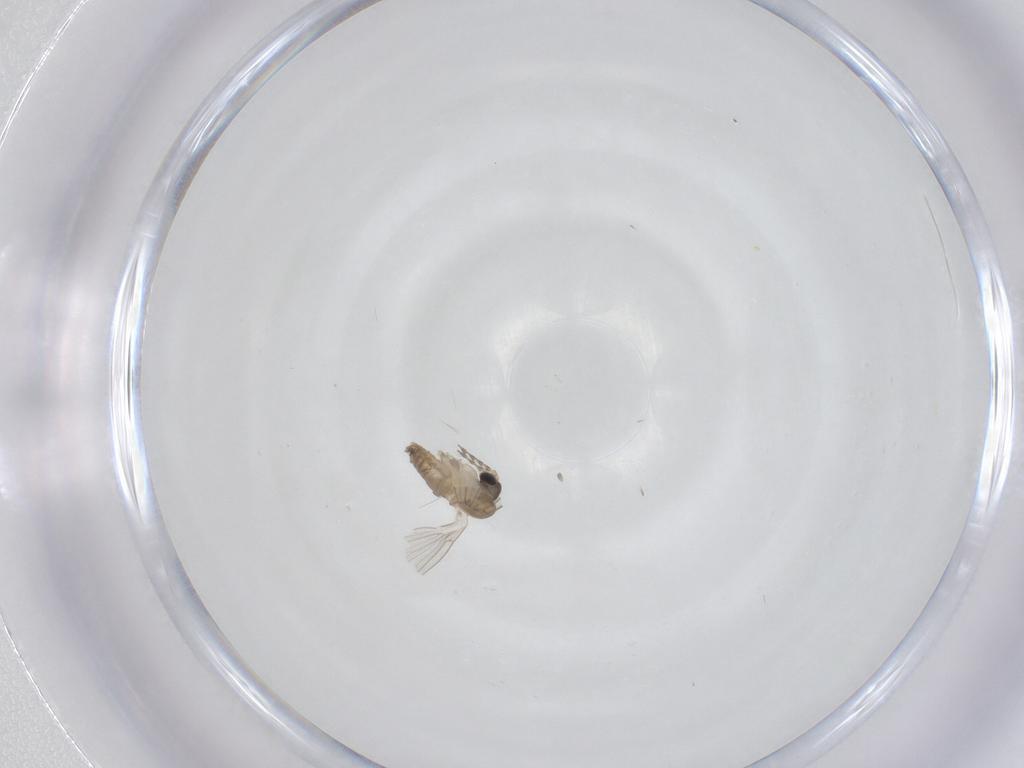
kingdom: Animalia
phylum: Arthropoda
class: Insecta
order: Diptera
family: Psychodidae
